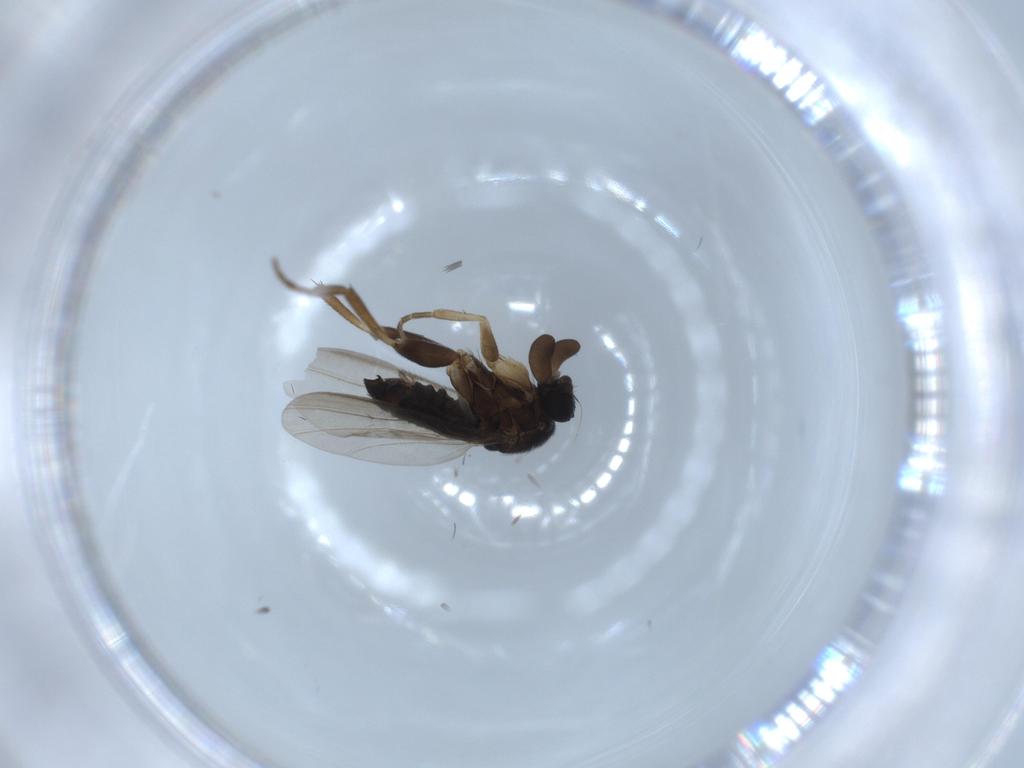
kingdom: Animalia
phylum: Arthropoda
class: Insecta
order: Diptera
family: Phoridae
